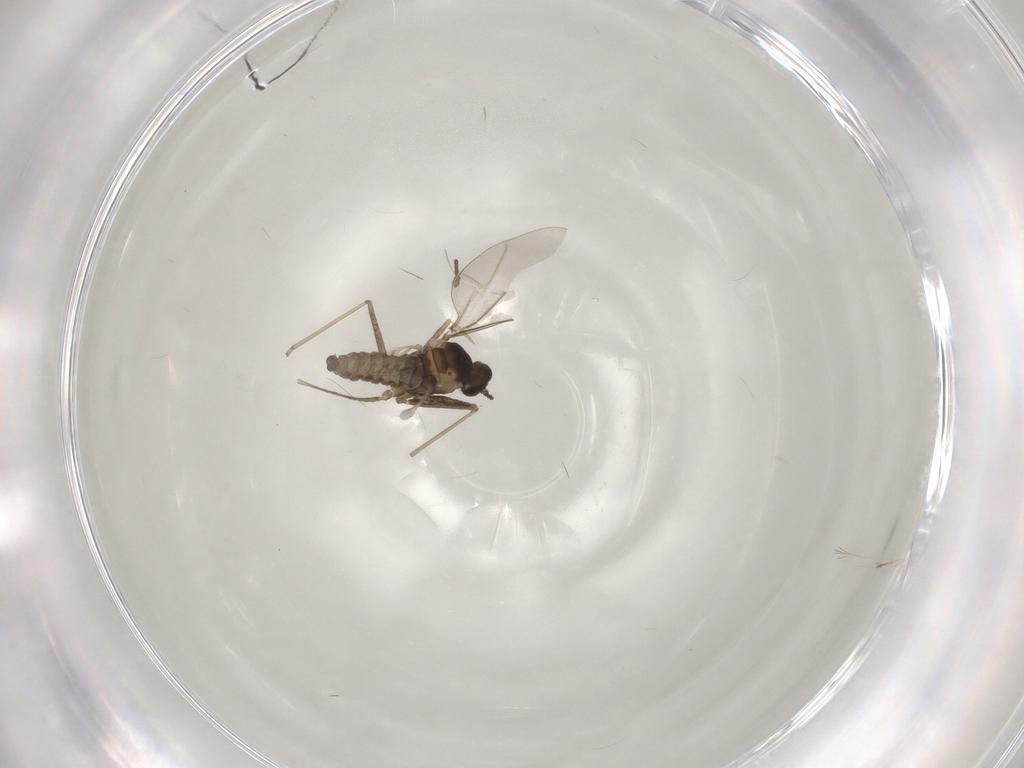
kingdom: Animalia
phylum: Arthropoda
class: Insecta
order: Diptera
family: Cecidomyiidae
